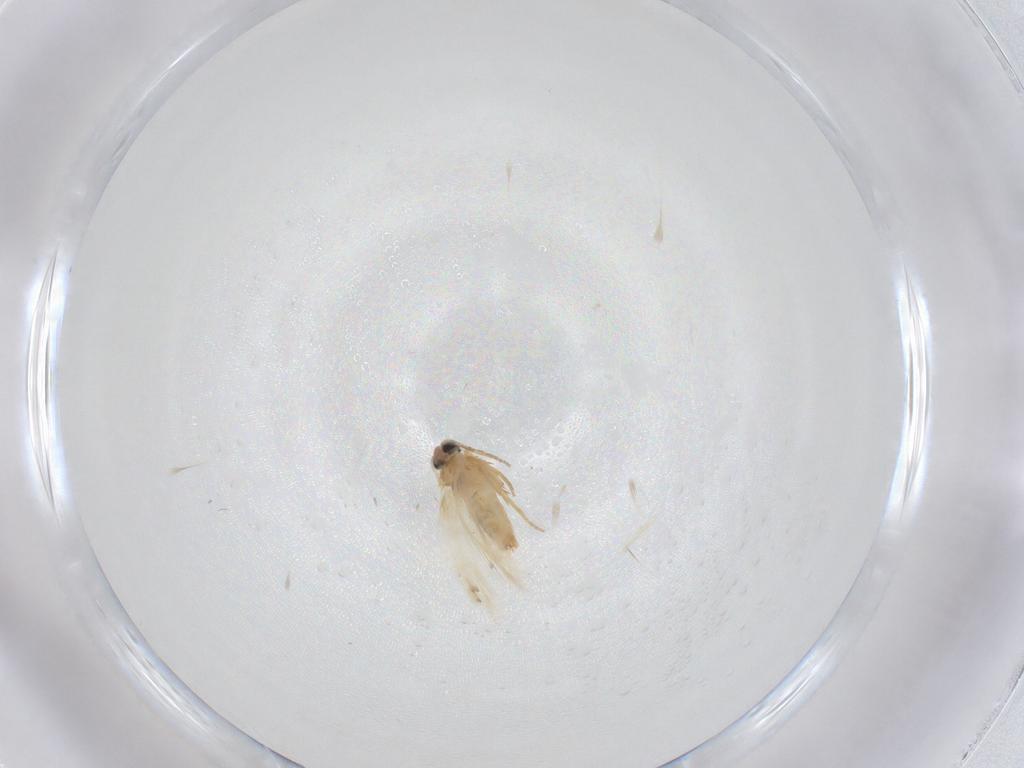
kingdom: Animalia
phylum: Arthropoda
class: Insecta
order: Lepidoptera
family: Crambidae
